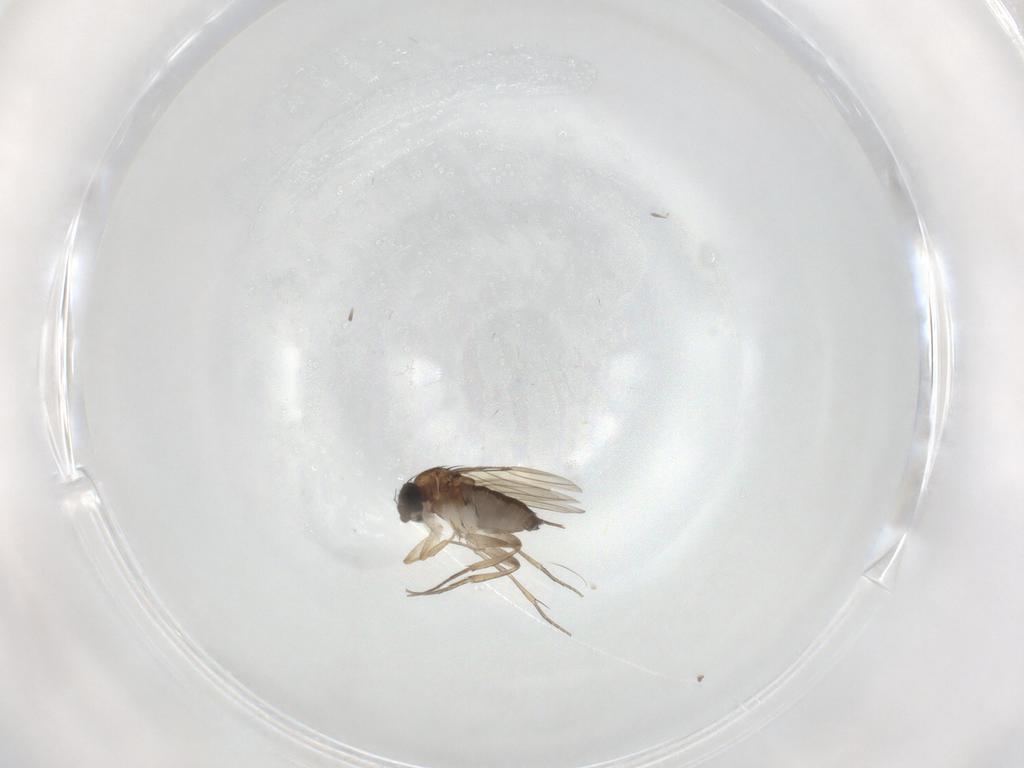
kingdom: Animalia
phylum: Arthropoda
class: Insecta
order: Diptera
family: Phoridae
